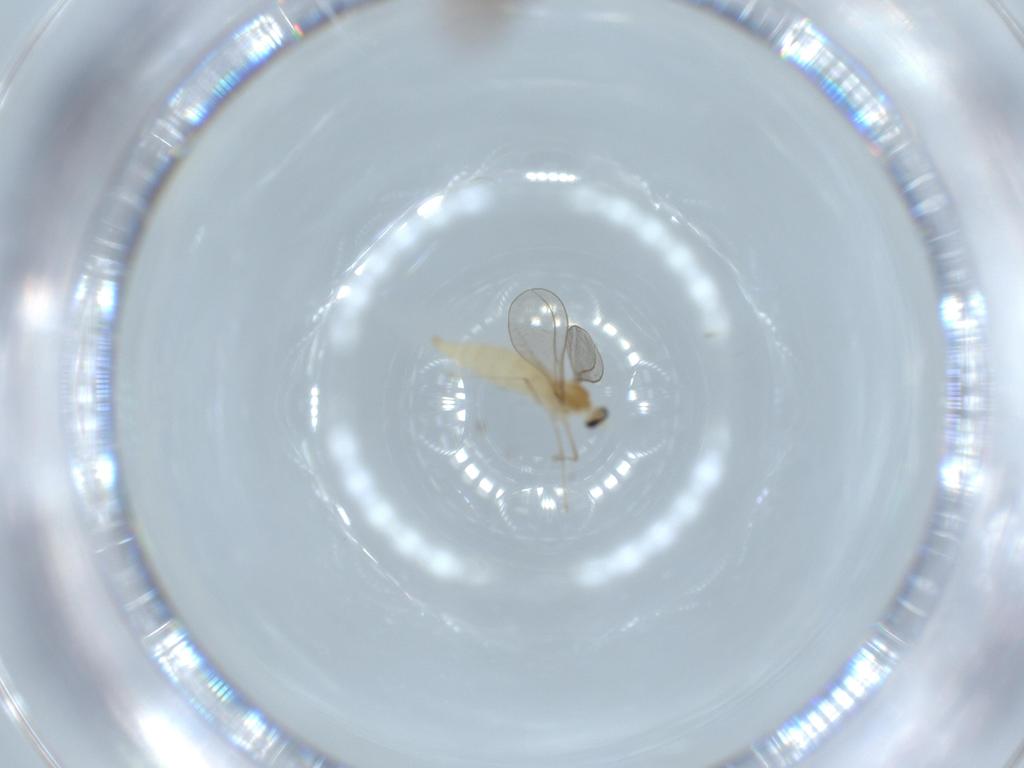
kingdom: Animalia
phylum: Arthropoda
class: Insecta
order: Diptera
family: Cecidomyiidae
